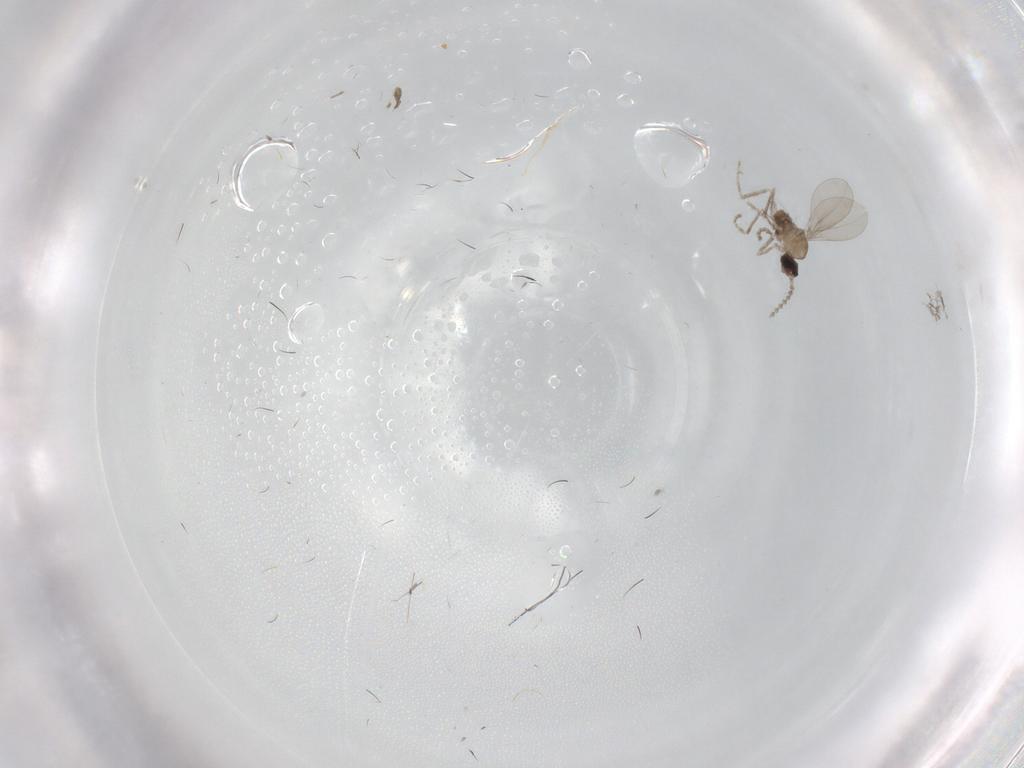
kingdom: Animalia
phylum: Arthropoda
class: Insecta
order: Diptera
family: Cecidomyiidae
